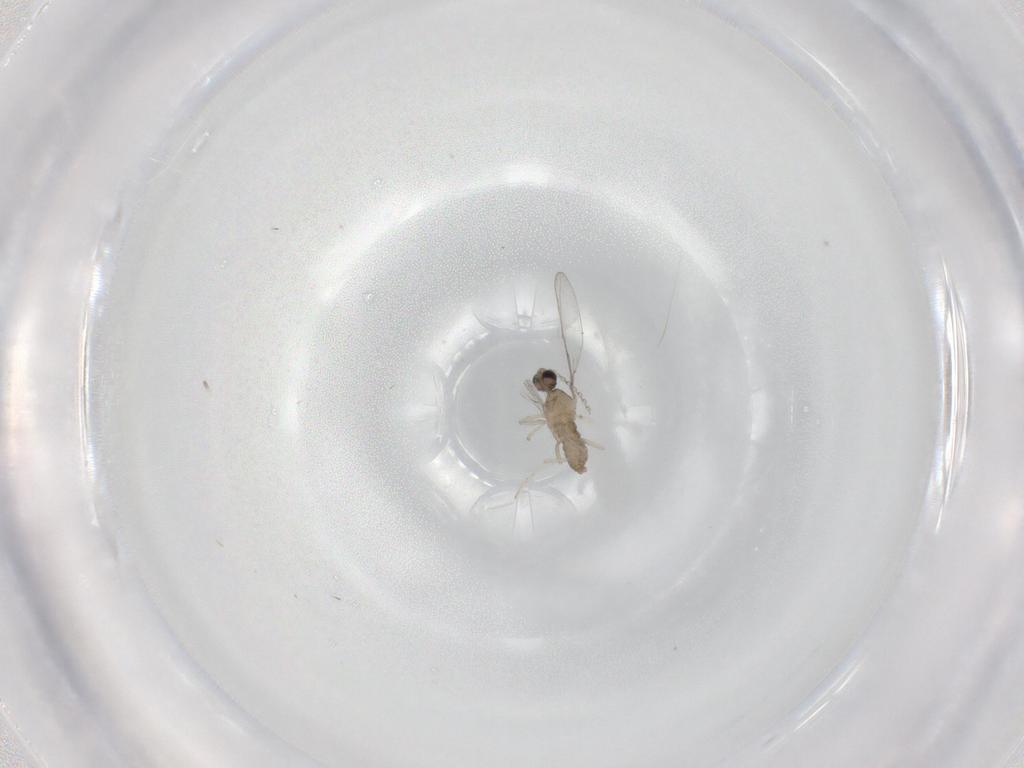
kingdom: Animalia
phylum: Arthropoda
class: Insecta
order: Diptera
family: Cecidomyiidae
